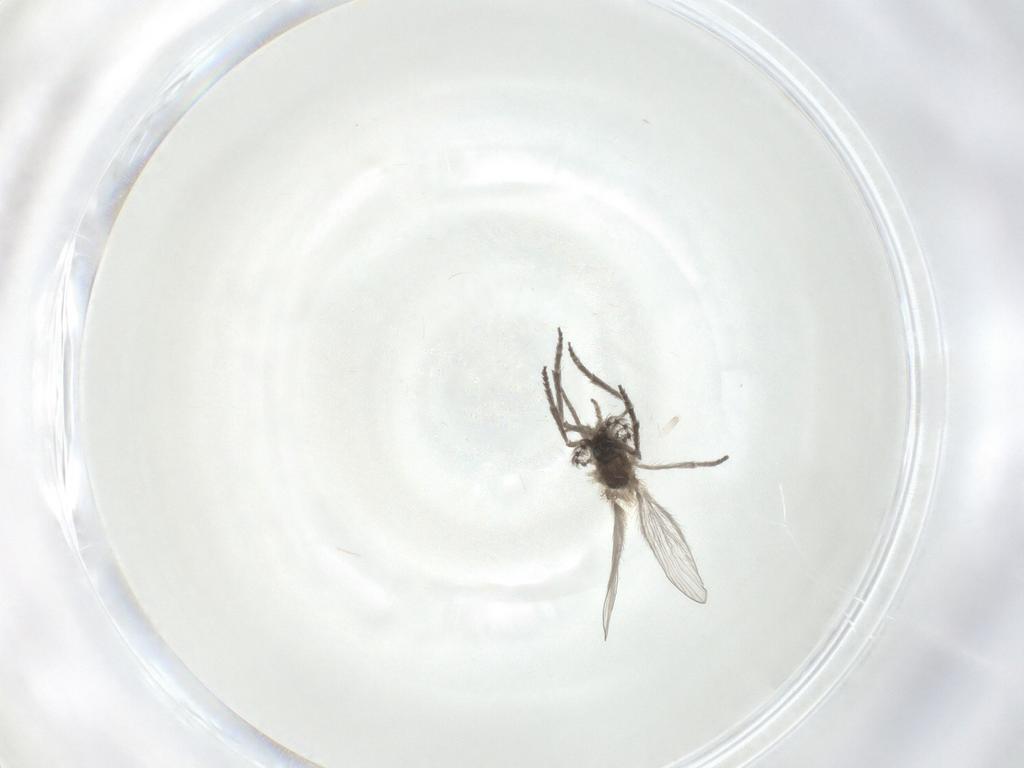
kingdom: Animalia
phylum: Arthropoda
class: Insecta
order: Diptera
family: Psychodidae
